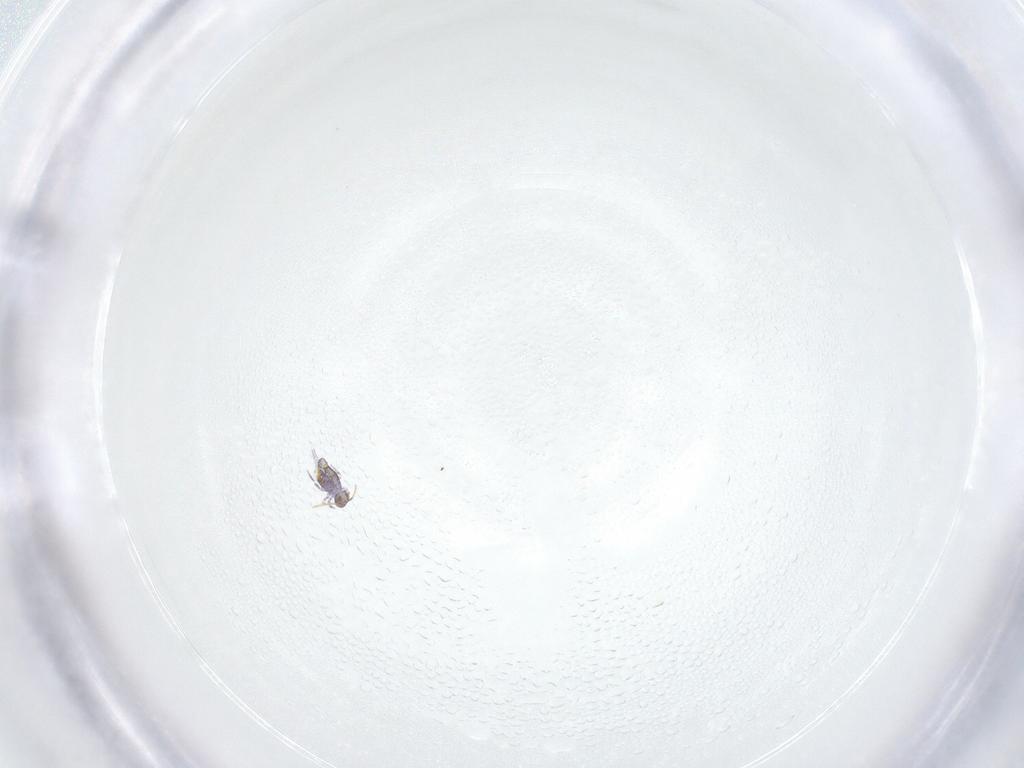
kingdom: Animalia
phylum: Arthropoda
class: Collembola
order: Symphypleona
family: Katiannidae
